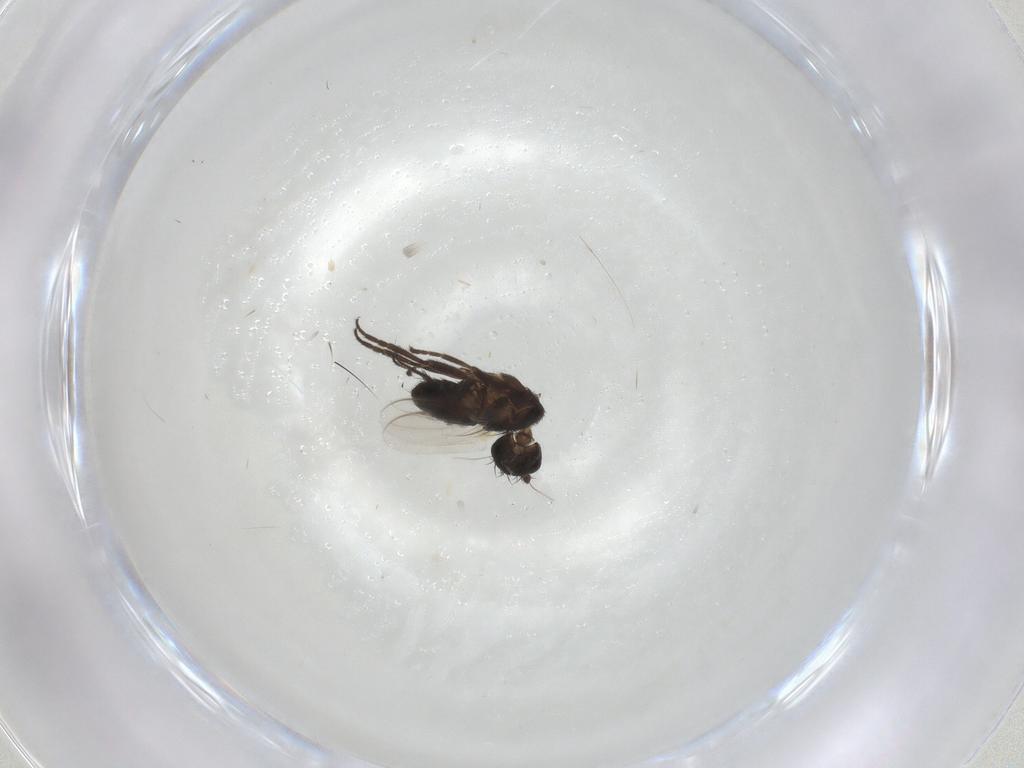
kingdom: Animalia
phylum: Arthropoda
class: Insecta
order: Diptera
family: Sphaeroceridae
